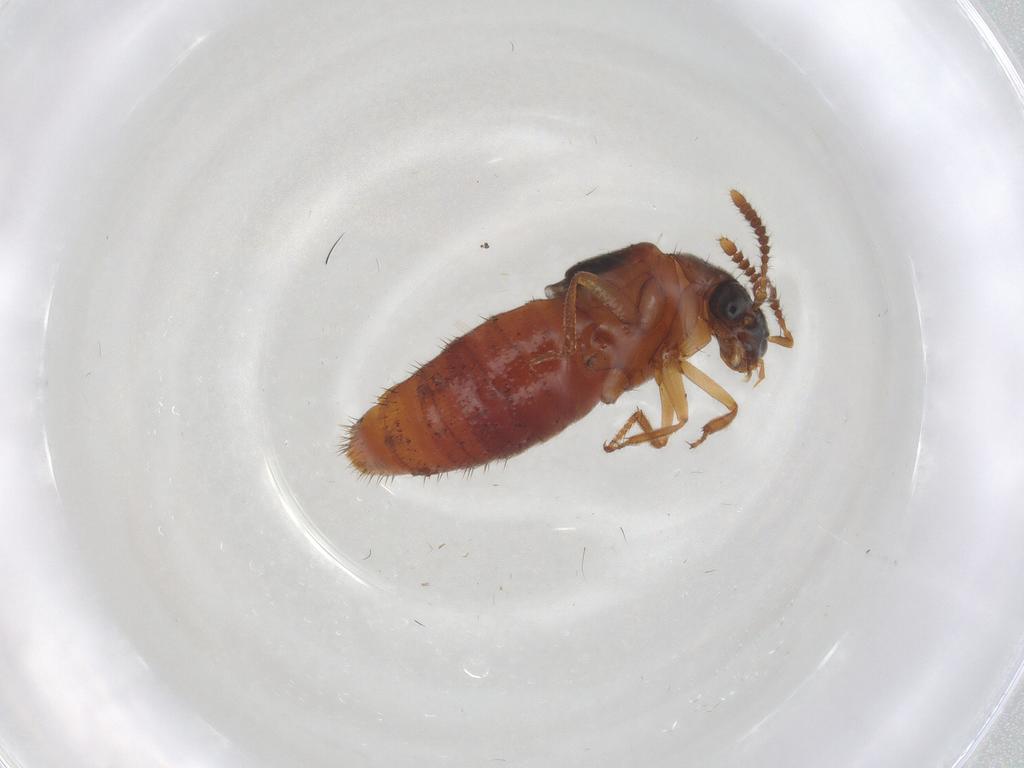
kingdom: Animalia
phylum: Arthropoda
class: Insecta
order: Coleoptera
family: Staphylinidae
